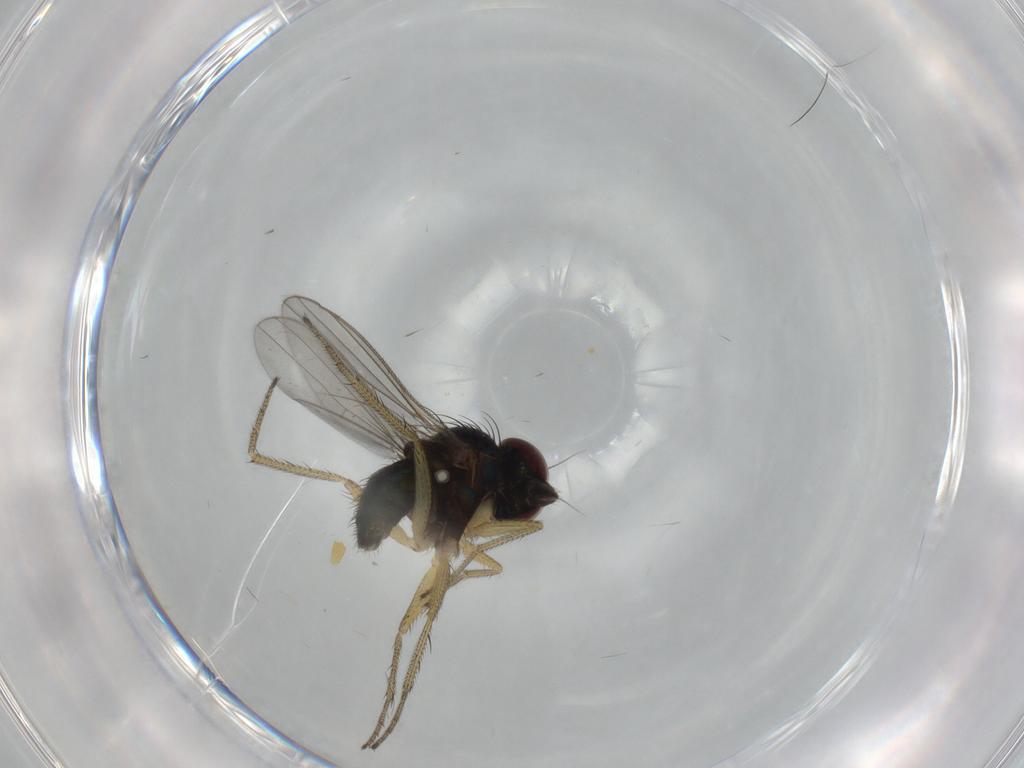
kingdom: Animalia
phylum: Arthropoda
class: Insecta
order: Diptera
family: Dolichopodidae
